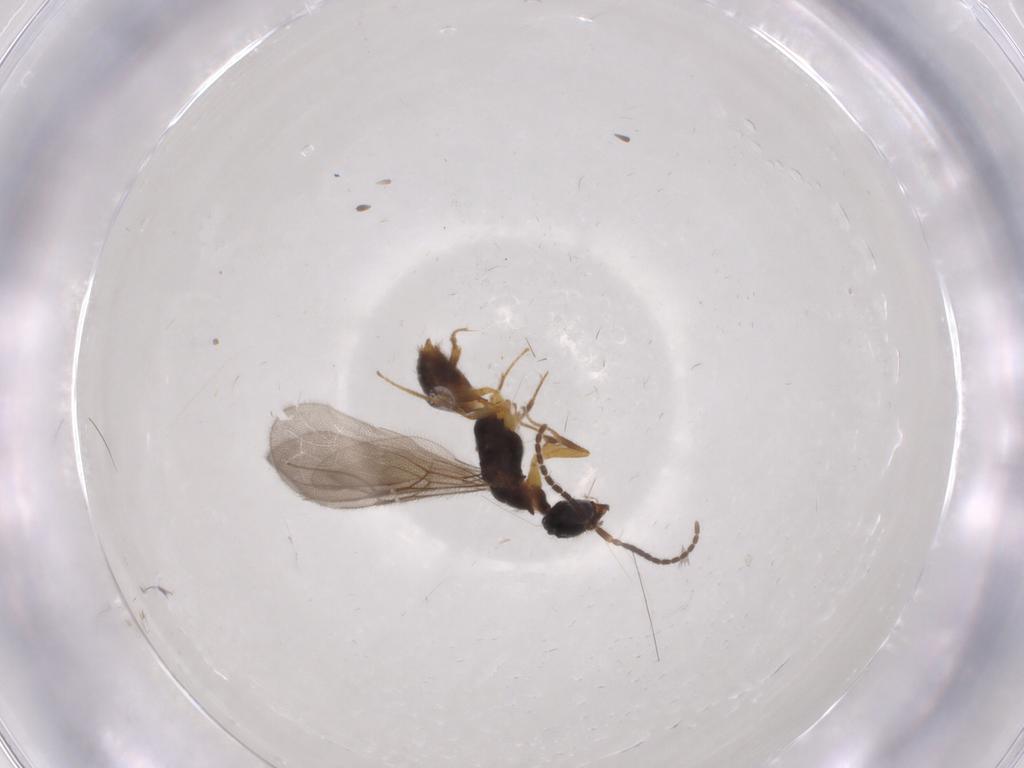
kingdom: Animalia
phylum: Arthropoda
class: Insecta
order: Hymenoptera
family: Bethylidae
